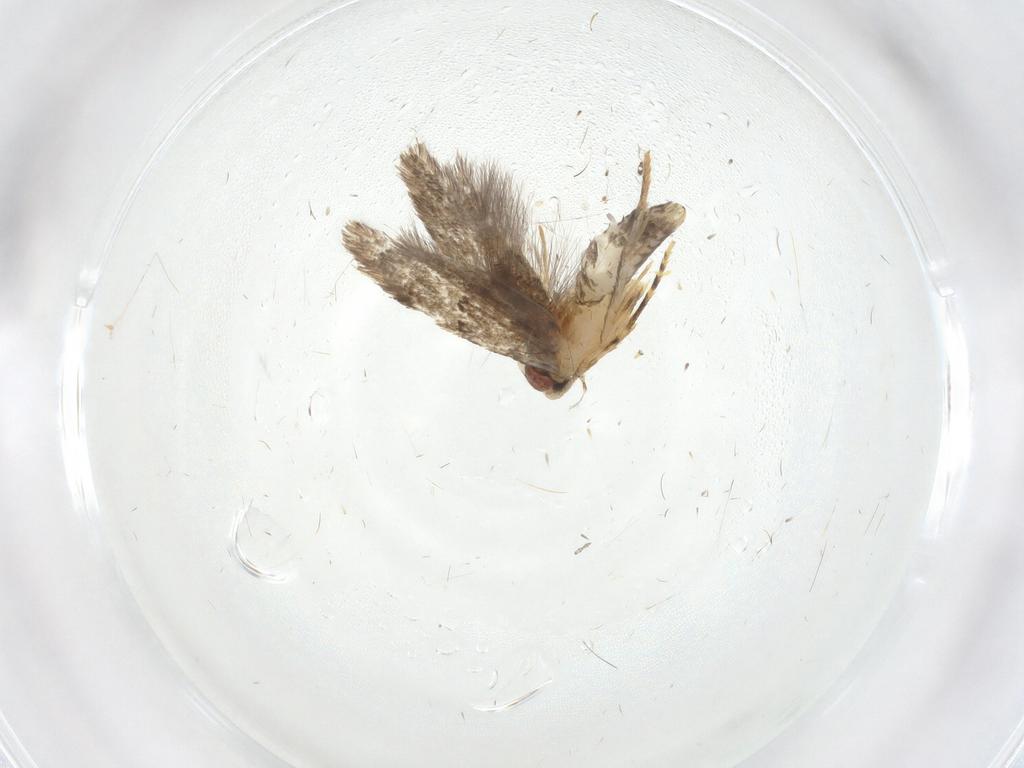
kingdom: Animalia
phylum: Arthropoda
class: Insecta
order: Lepidoptera
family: Tineidae
